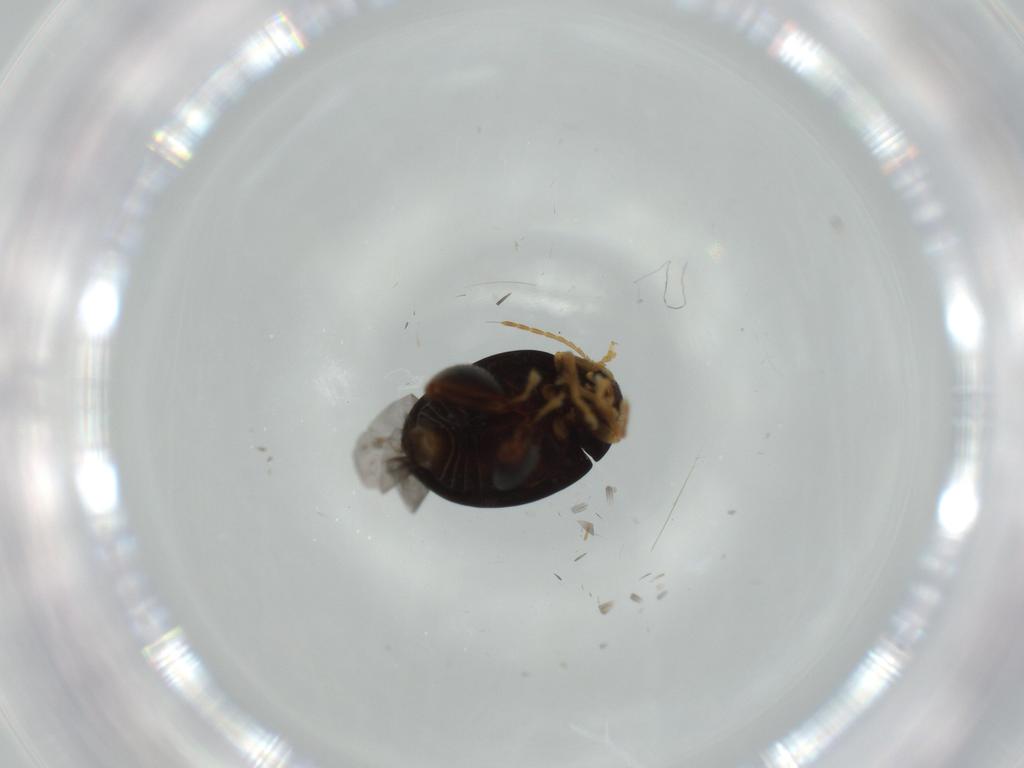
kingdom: Animalia
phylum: Arthropoda
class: Insecta
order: Coleoptera
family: Chrysomelidae
